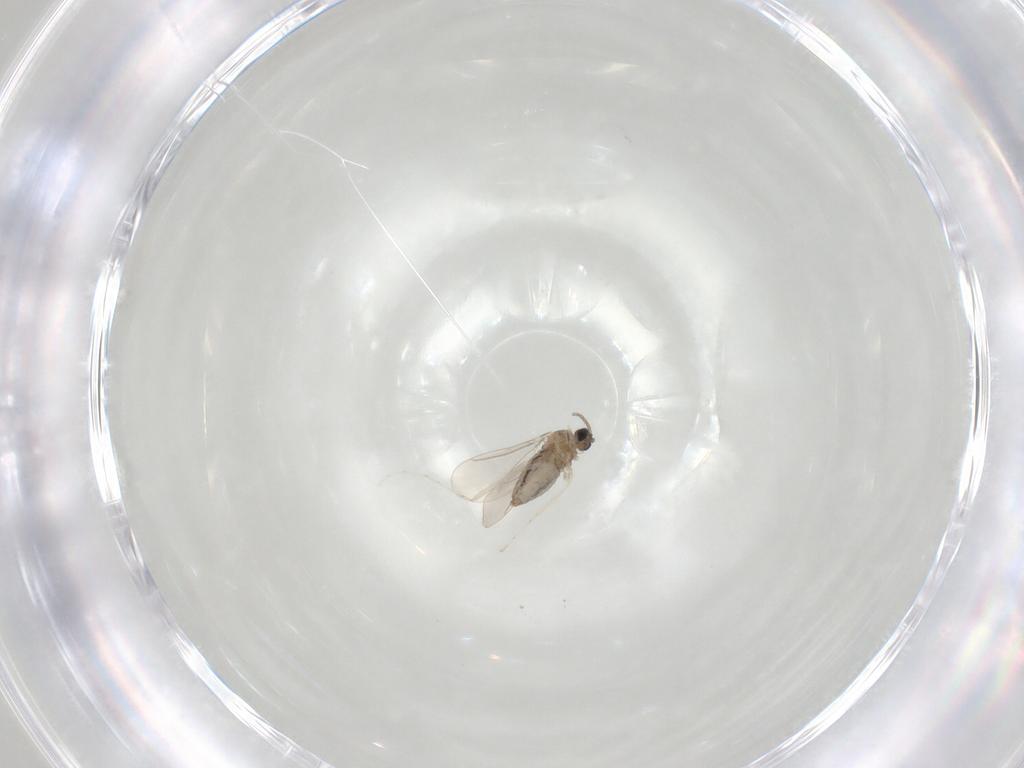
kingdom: Animalia
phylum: Arthropoda
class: Insecta
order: Diptera
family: Cecidomyiidae
